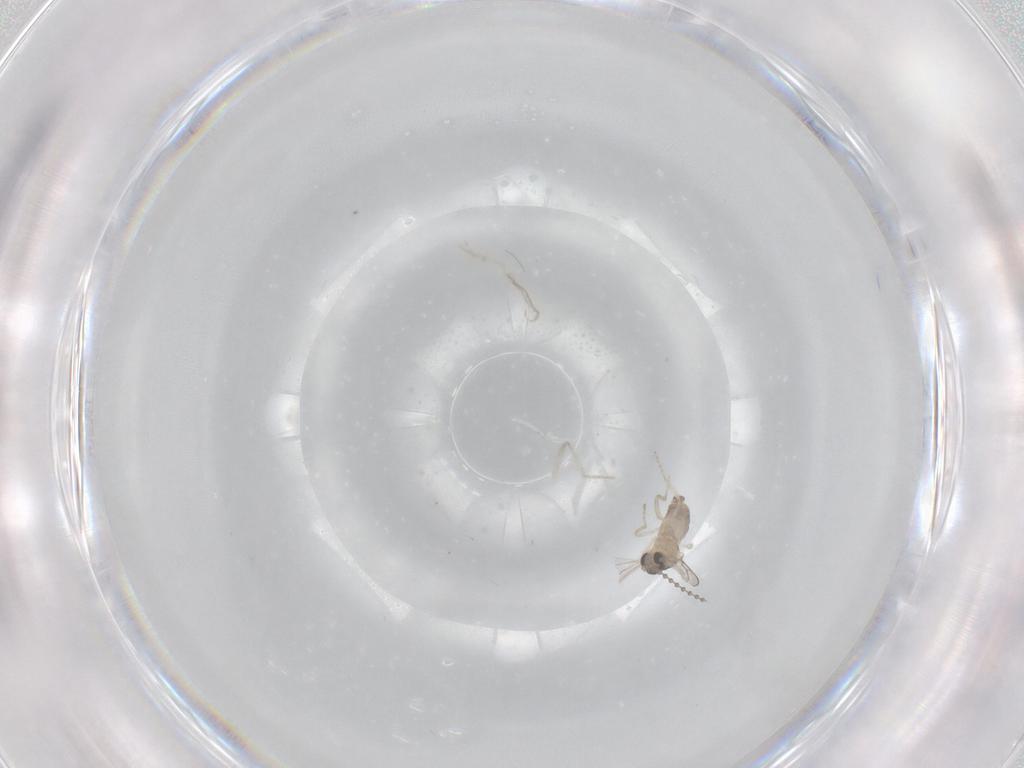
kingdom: Animalia
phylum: Arthropoda
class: Insecta
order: Diptera
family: Cecidomyiidae
